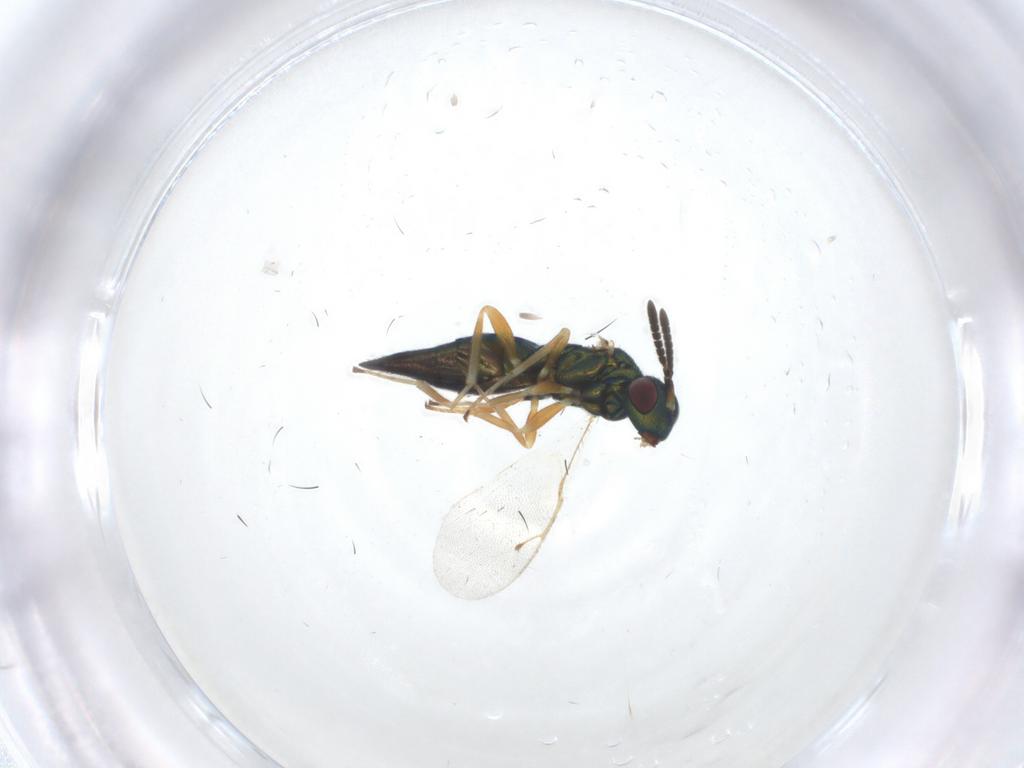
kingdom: Animalia
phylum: Arthropoda
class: Insecta
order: Hymenoptera
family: Pteromalidae
